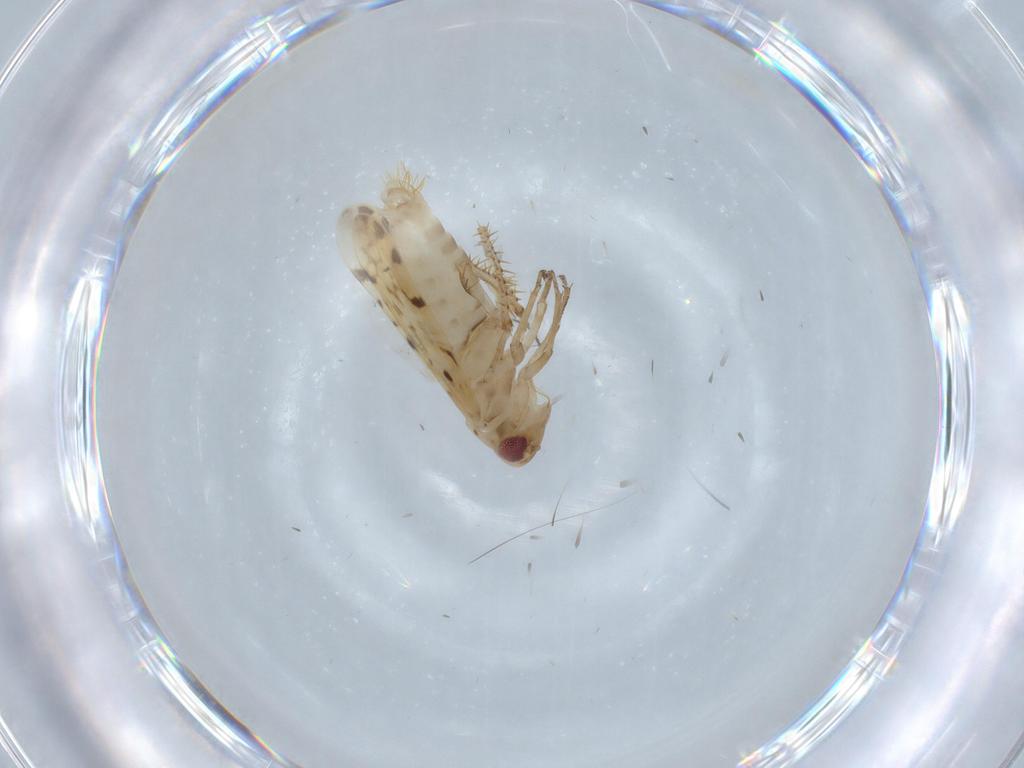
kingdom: Animalia
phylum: Arthropoda
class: Insecta
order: Hemiptera
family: Cicadellidae
